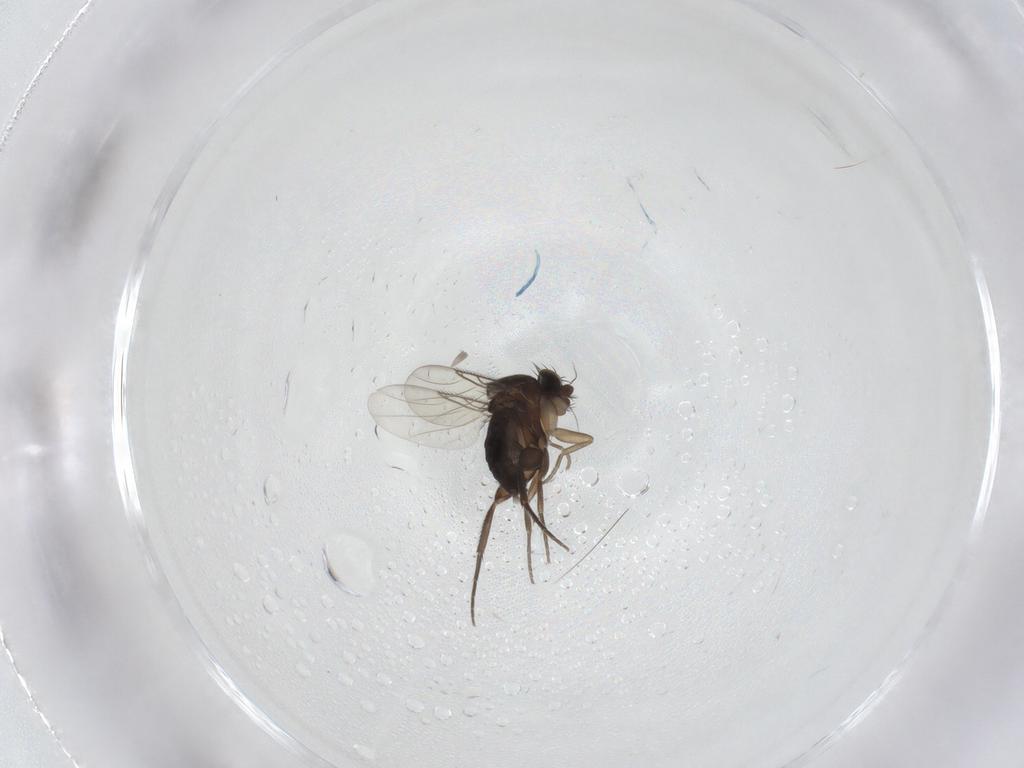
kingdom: Animalia
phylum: Arthropoda
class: Insecta
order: Diptera
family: Phoridae
